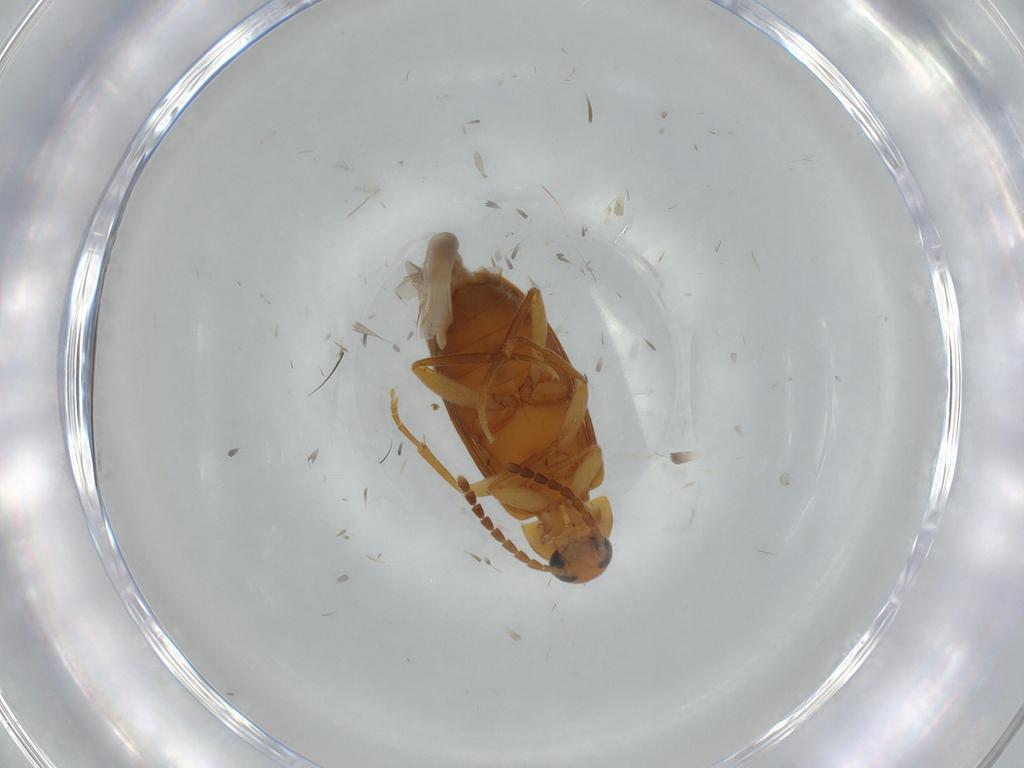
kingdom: Animalia
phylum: Arthropoda
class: Insecta
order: Coleoptera
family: Scraptiidae
